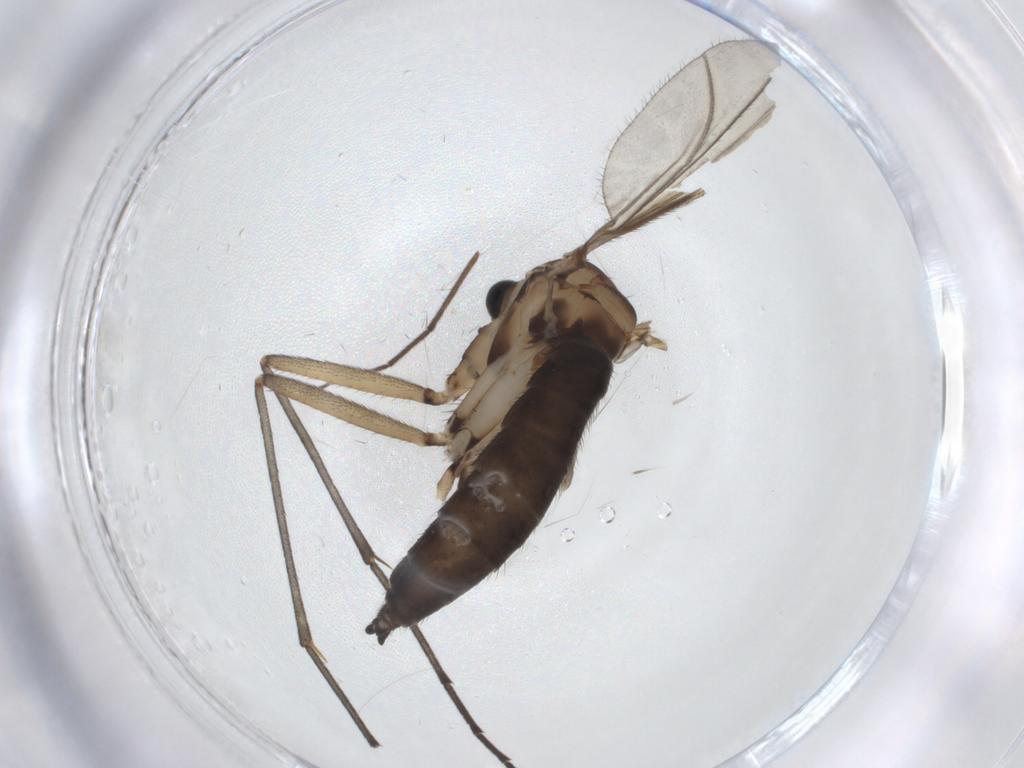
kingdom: Animalia
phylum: Arthropoda
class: Insecta
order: Diptera
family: Sciaridae
